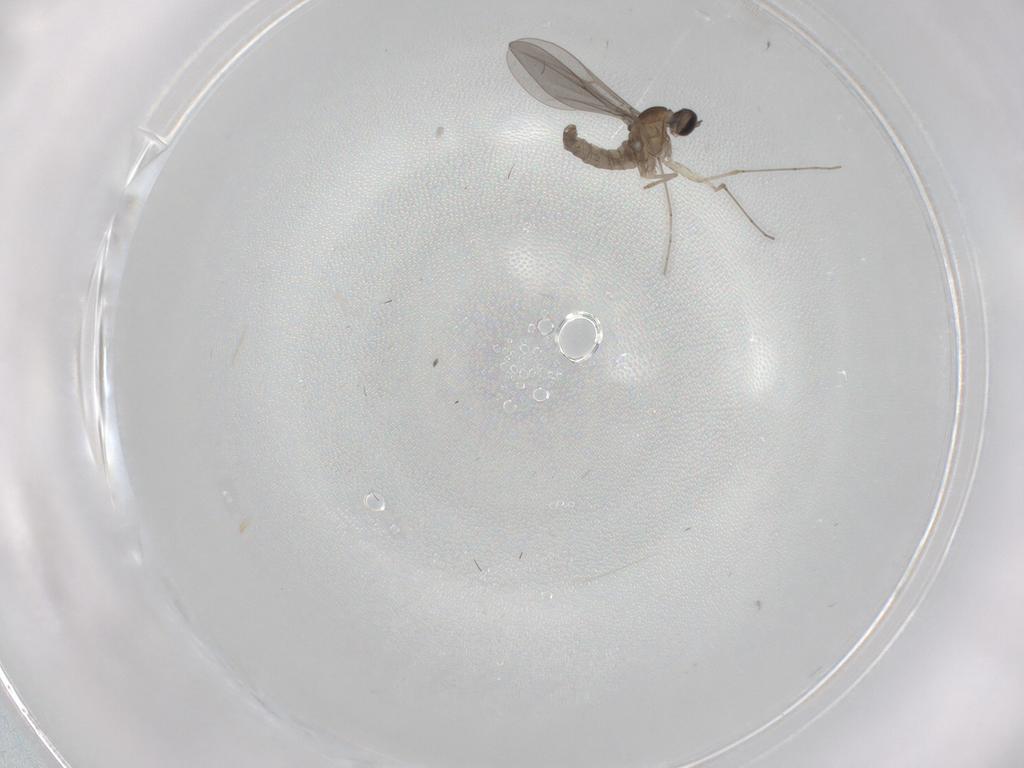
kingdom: Animalia
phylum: Arthropoda
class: Insecta
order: Diptera
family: Cecidomyiidae
